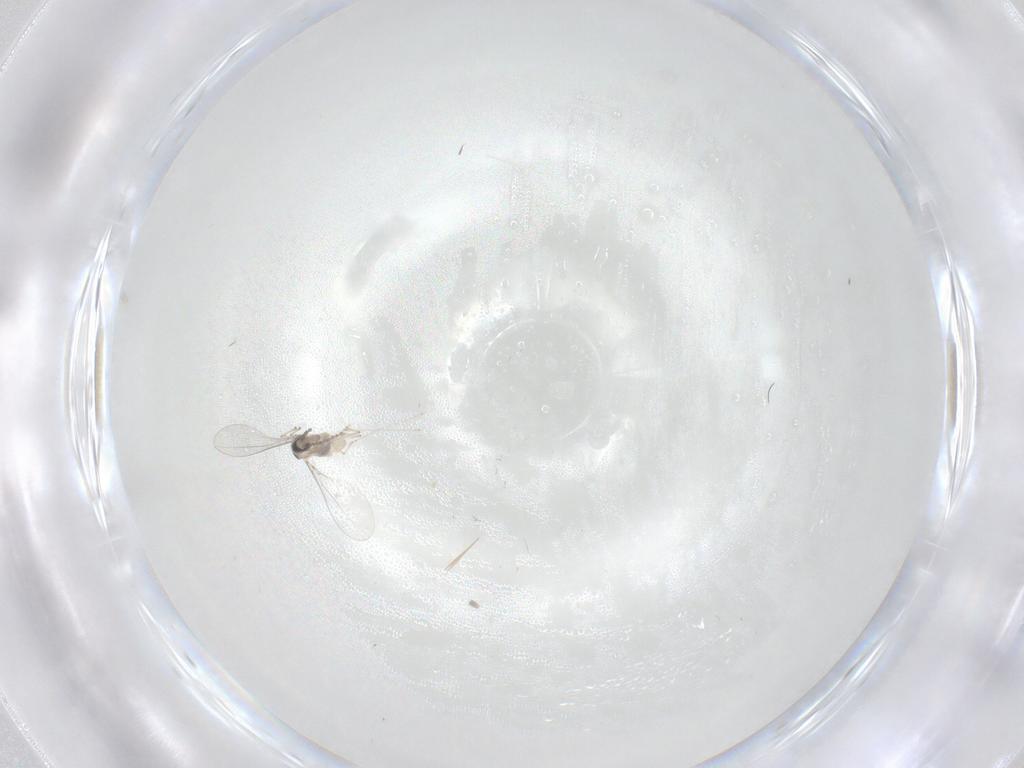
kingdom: Animalia
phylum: Arthropoda
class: Insecta
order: Diptera
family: Cecidomyiidae
